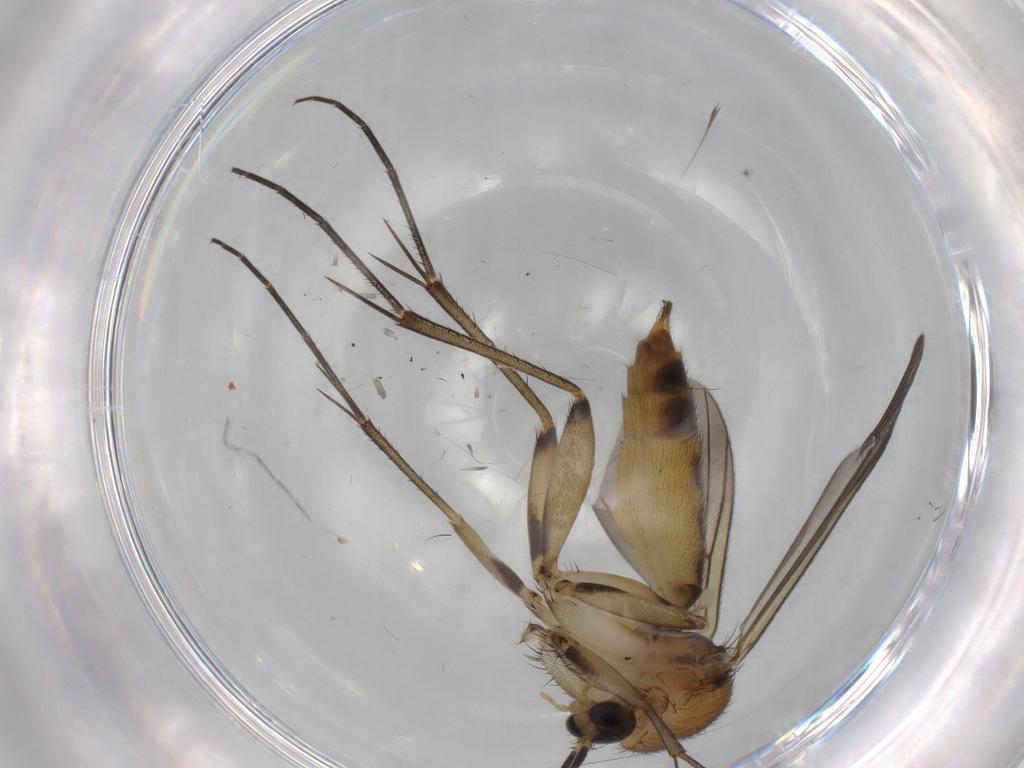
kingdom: Animalia
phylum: Arthropoda
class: Insecta
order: Diptera
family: Mycetophilidae
